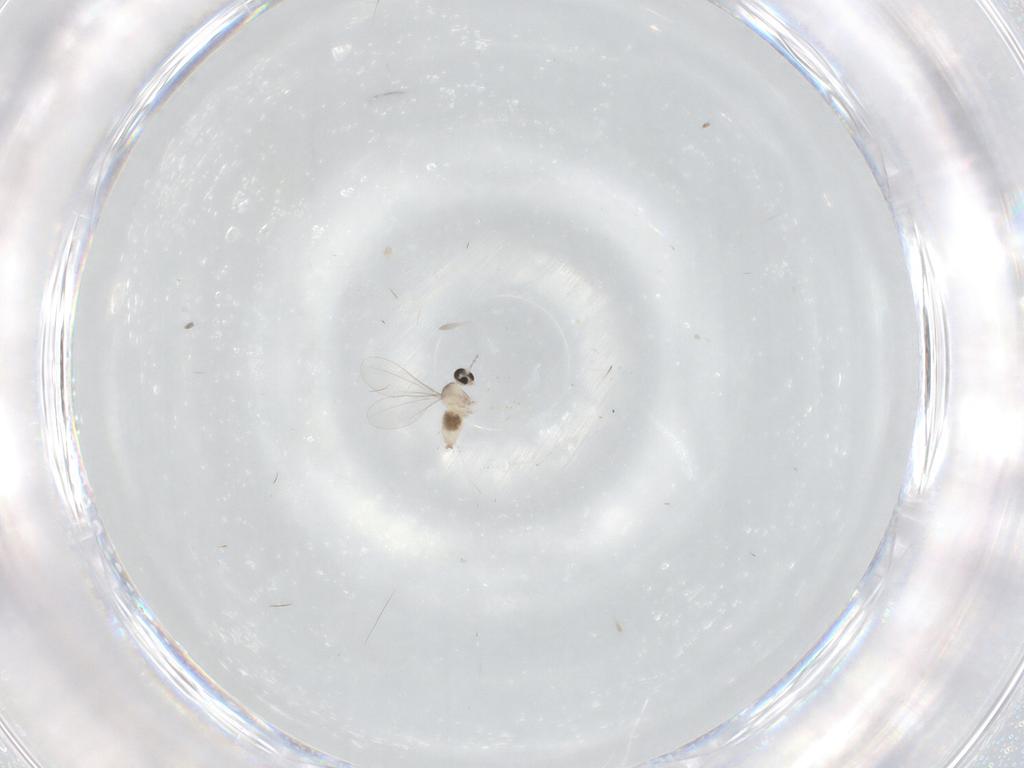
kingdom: Animalia
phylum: Arthropoda
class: Insecta
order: Diptera
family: Cecidomyiidae
